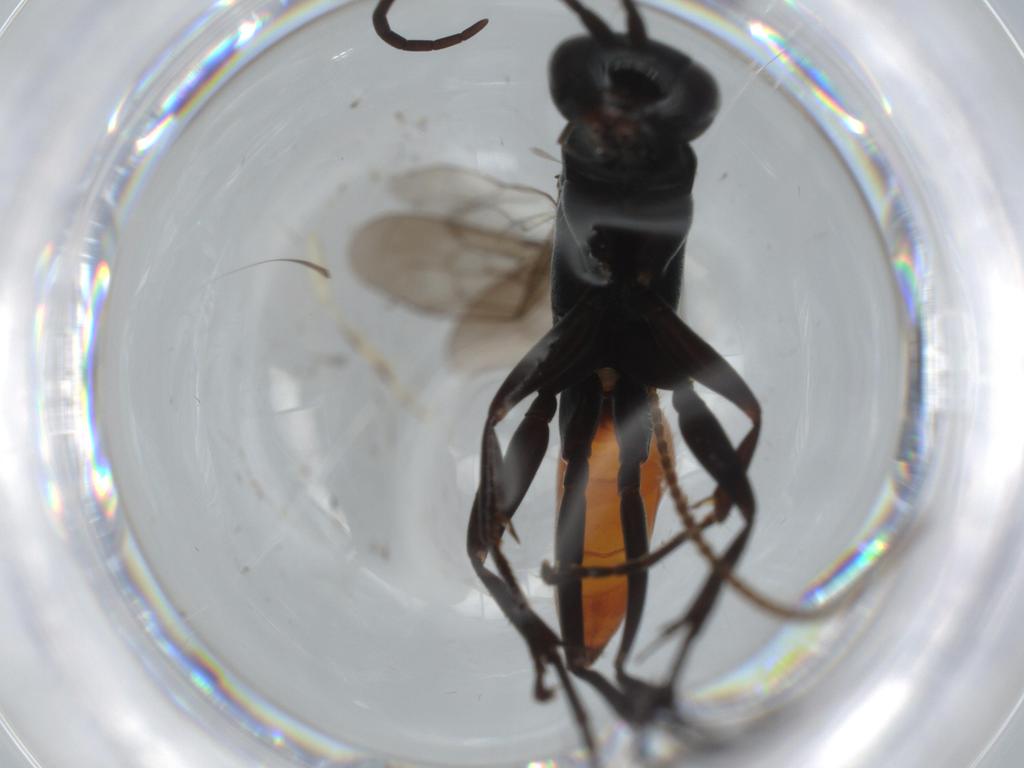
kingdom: Animalia
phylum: Arthropoda
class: Insecta
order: Hymenoptera
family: Pompilidae
